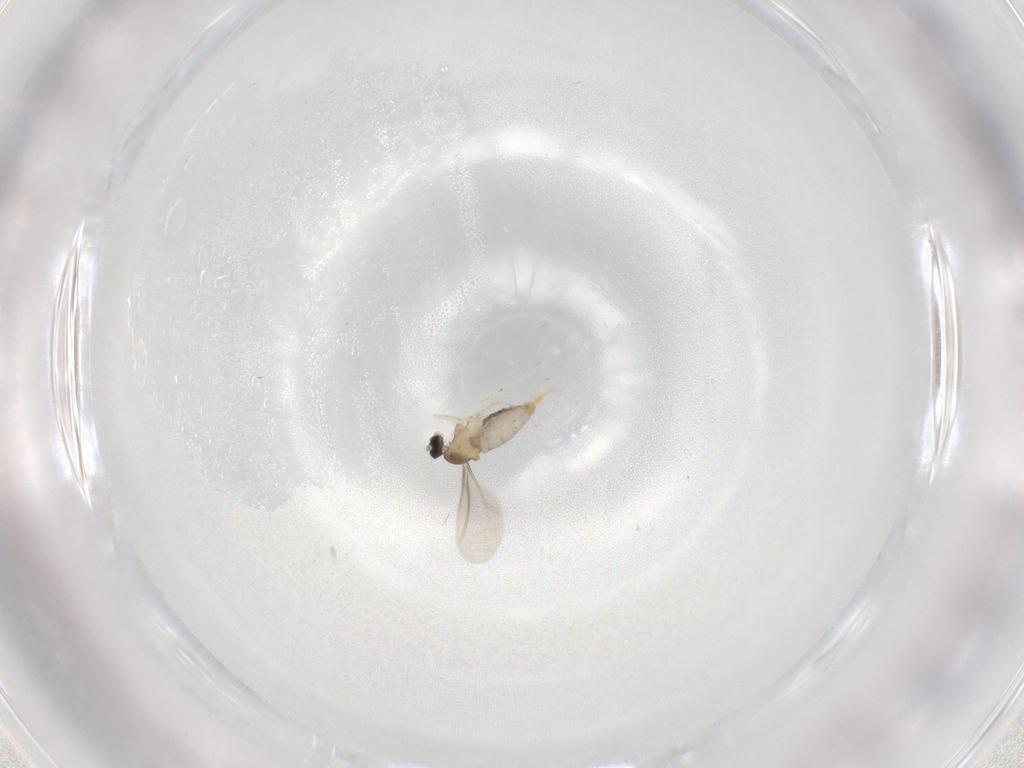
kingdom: Animalia
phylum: Arthropoda
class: Insecta
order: Diptera
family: Cecidomyiidae
